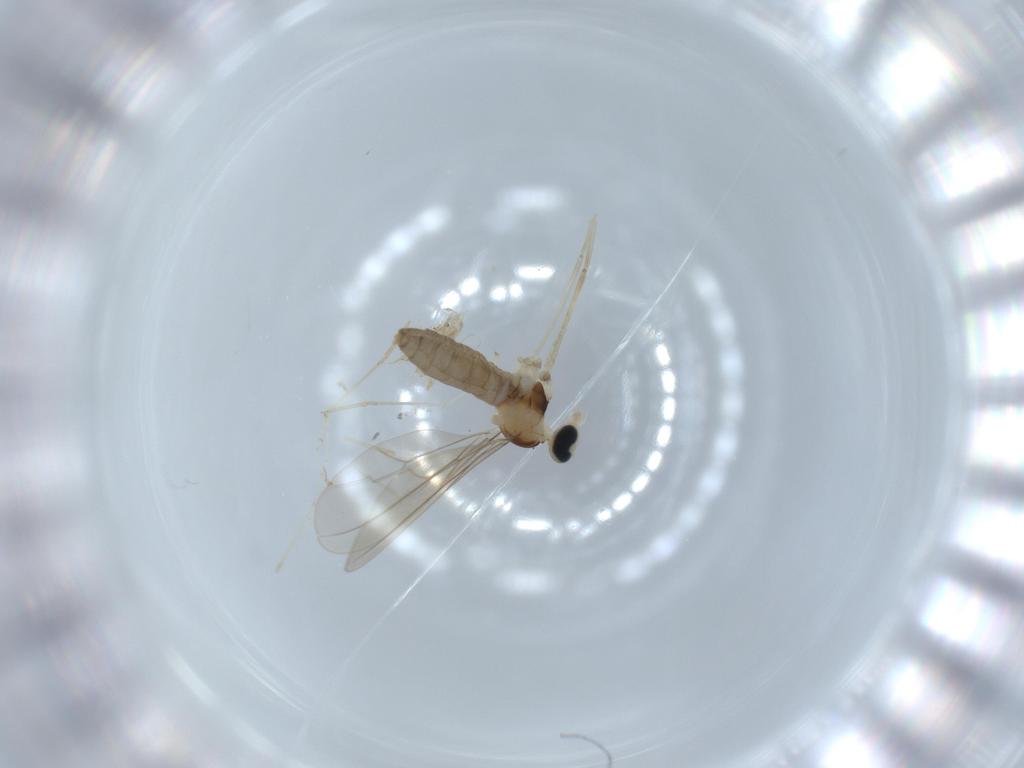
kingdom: Animalia
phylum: Arthropoda
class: Insecta
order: Diptera
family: Cecidomyiidae
